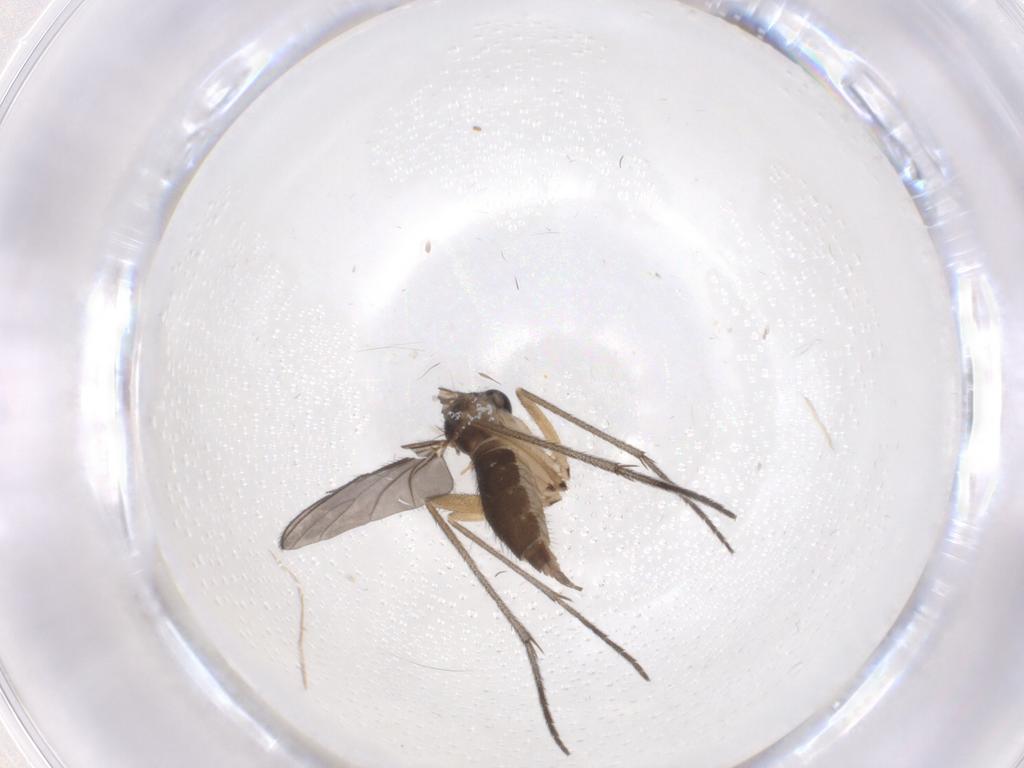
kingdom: Animalia
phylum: Arthropoda
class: Insecta
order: Diptera
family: Sciaridae
